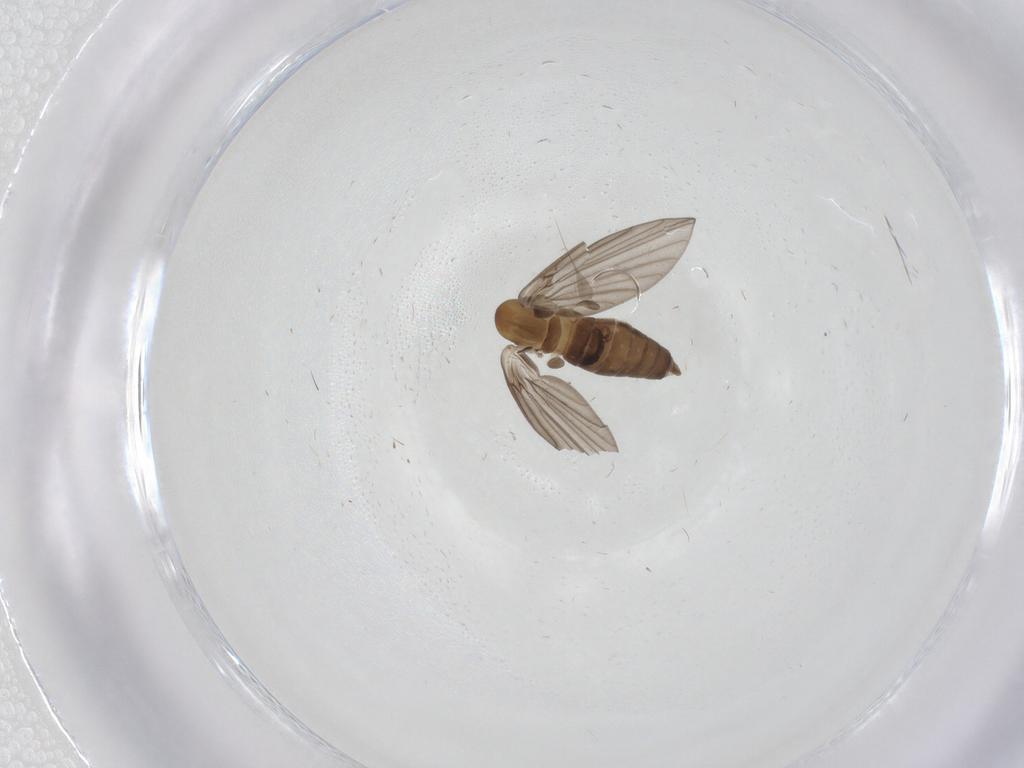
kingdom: Animalia
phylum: Arthropoda
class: Insecta
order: Diptera
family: Chironomidae
